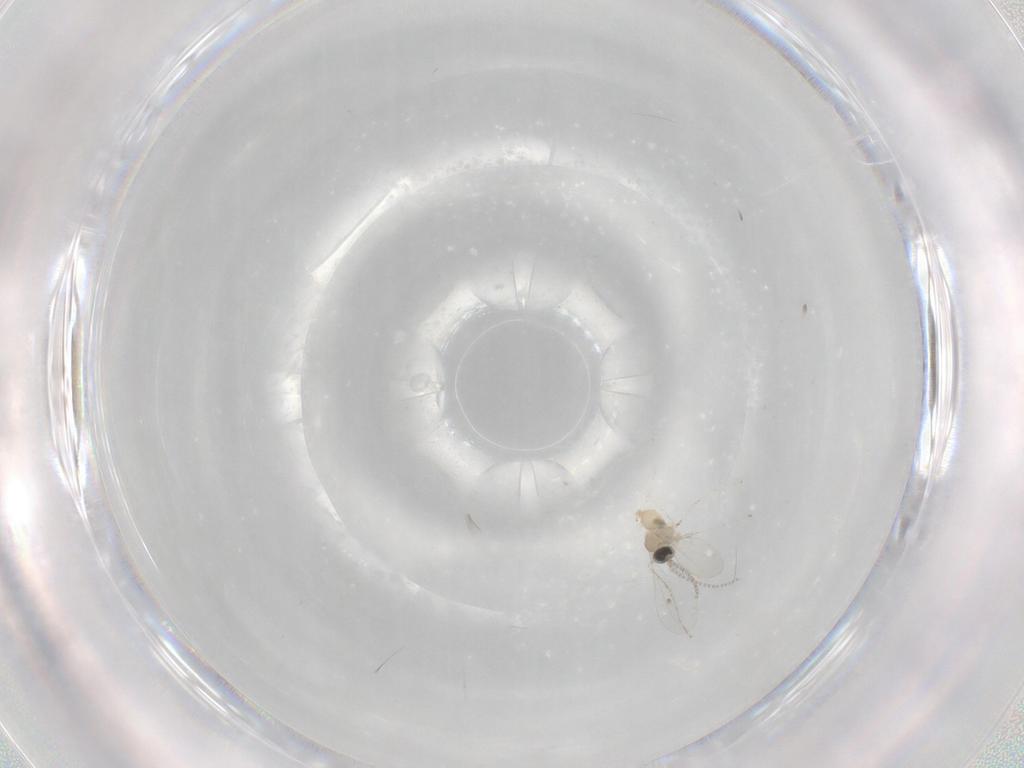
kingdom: Animalia
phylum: Arthropoda
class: Insecta
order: Diptera
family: Cecidomyiidae
